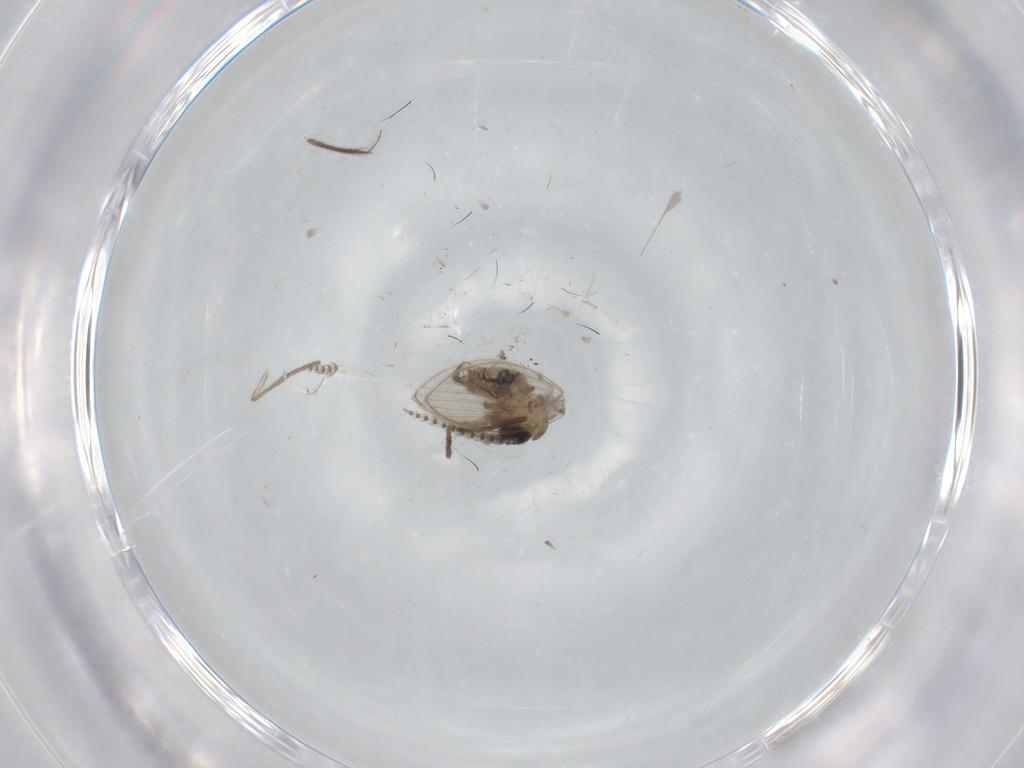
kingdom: Animalia
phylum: Arthropoda
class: Insecta
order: Diptera
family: Psychodidae
